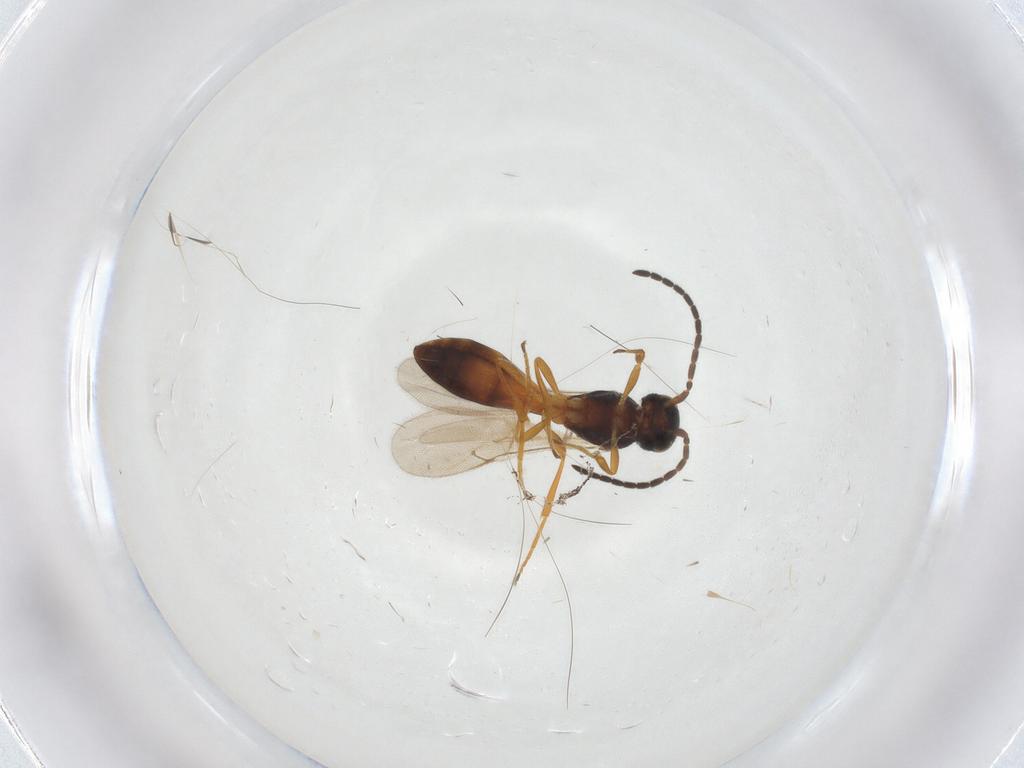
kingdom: Animalia
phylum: Arthropoda
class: Insecta
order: Hymenoptera
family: Scelionidae
